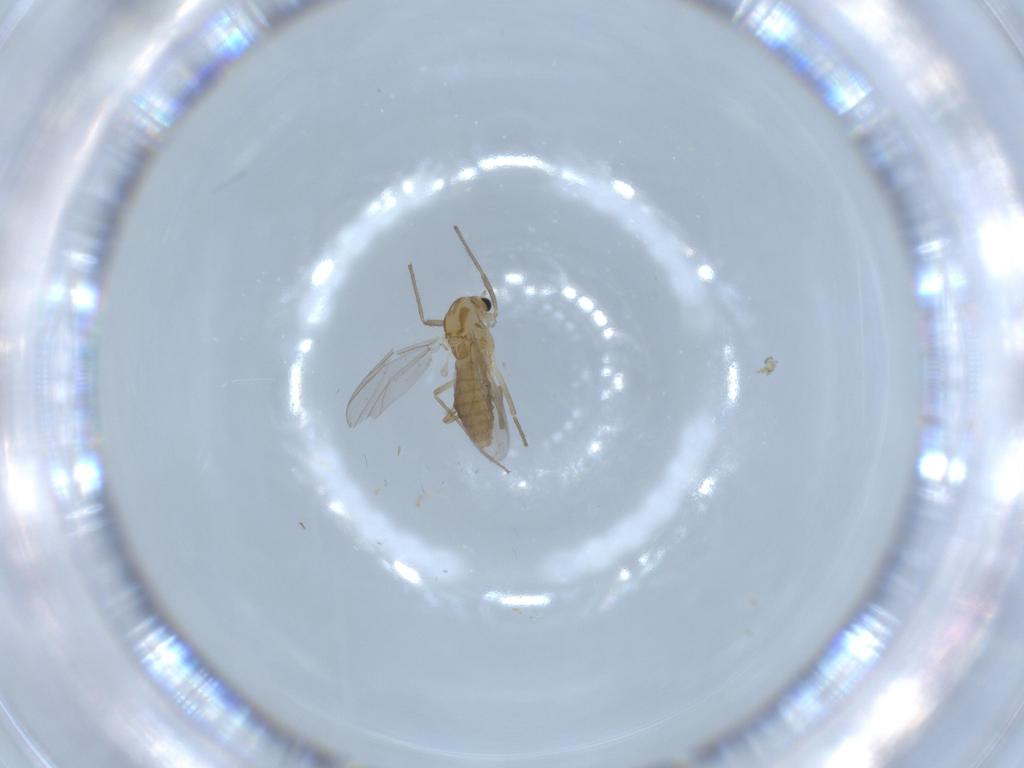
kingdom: Animalia
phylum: Arthropoda
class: Insecta
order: Diptera
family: Chironomidae
